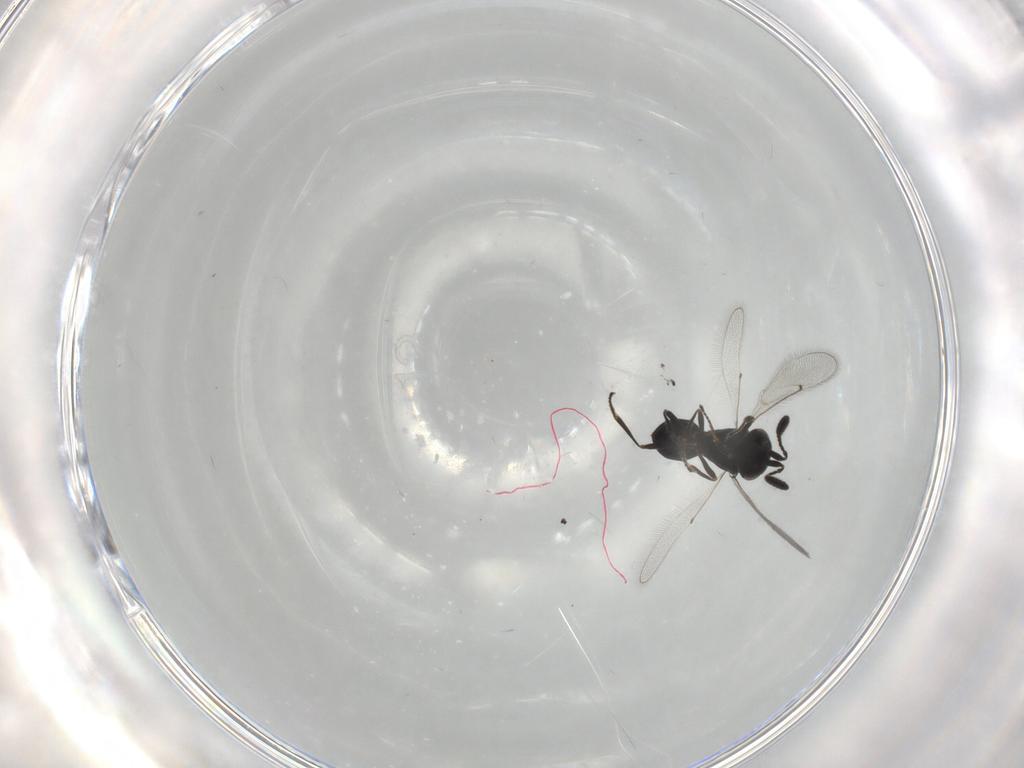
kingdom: Animalia
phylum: Arthropoda
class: Insecta
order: Hymenoptera
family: Scelionidae
